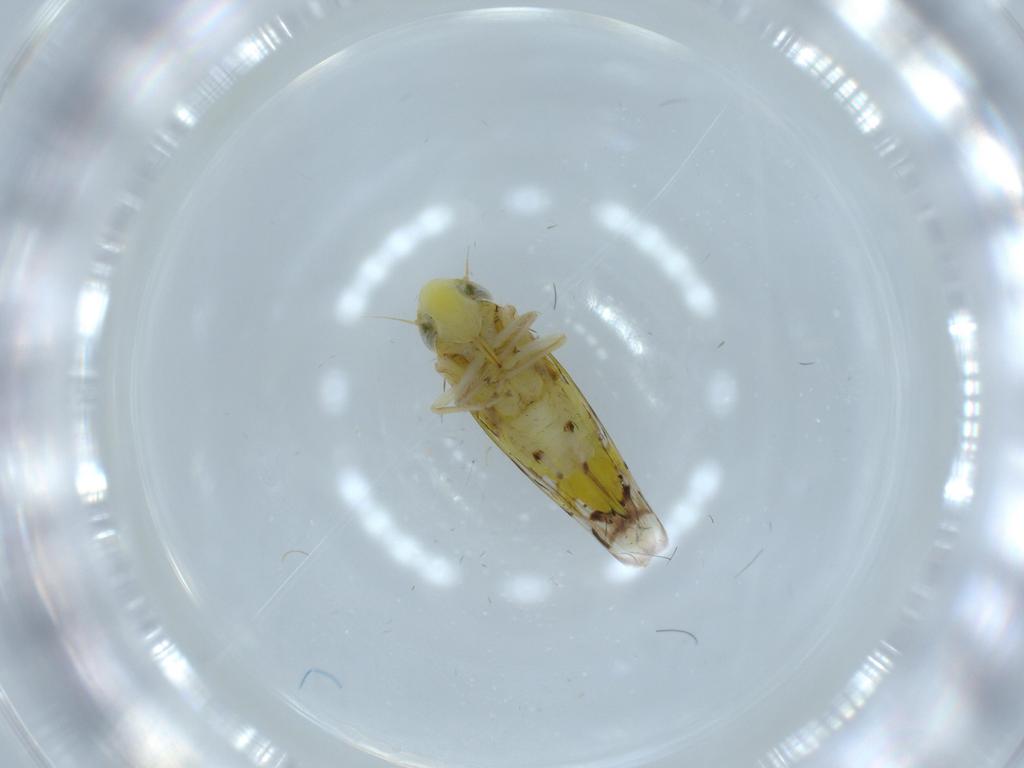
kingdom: Animalia
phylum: Arthropoda
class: Insecta
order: Hemiptera
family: Cicadellidae
